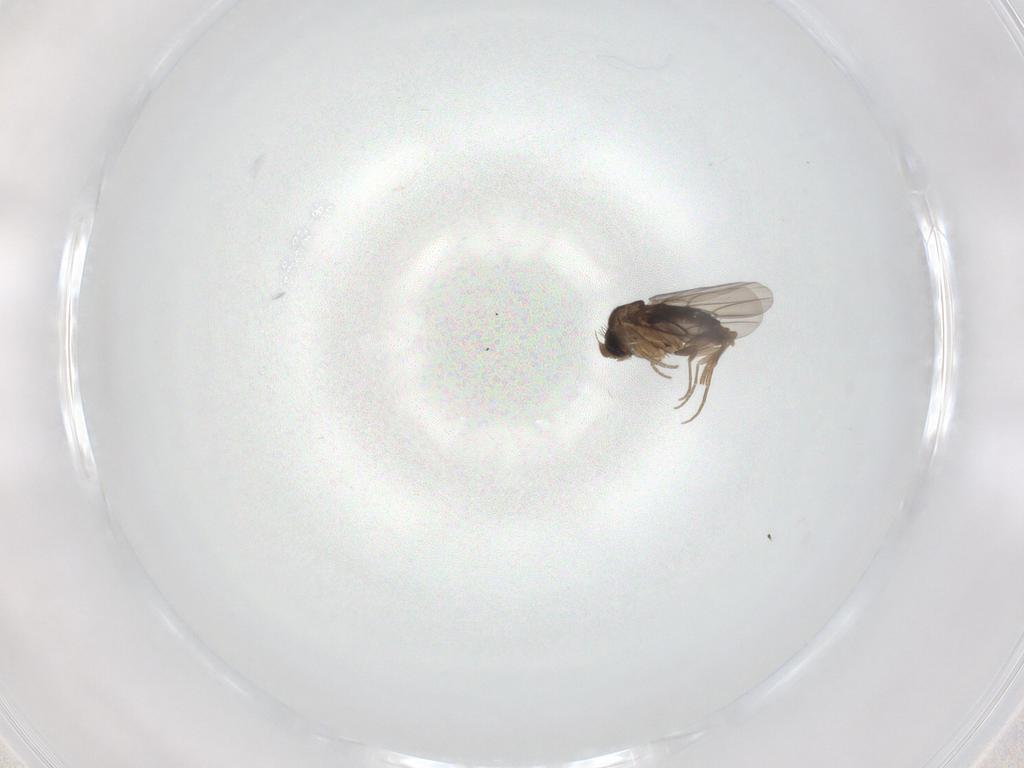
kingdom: Animalia
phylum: Arthropoda
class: Insecta
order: Diptera
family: Phoridae
